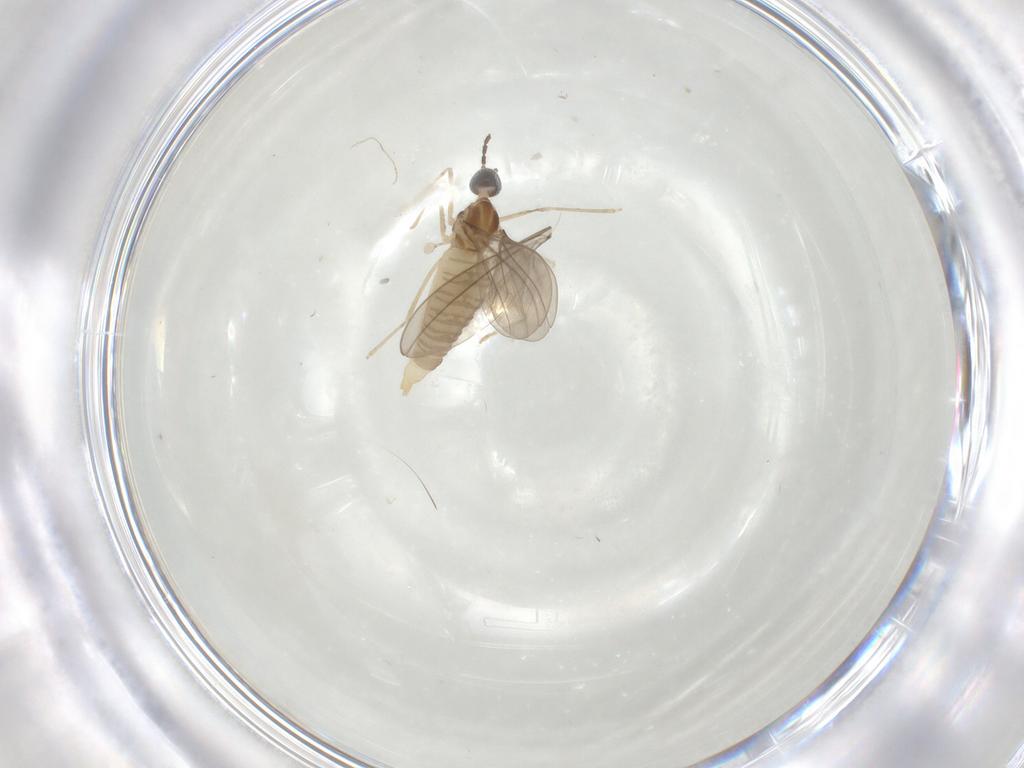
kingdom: Animalia
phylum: Arthropoda
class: Insecta
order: Diptera
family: Cecidomyiidae
